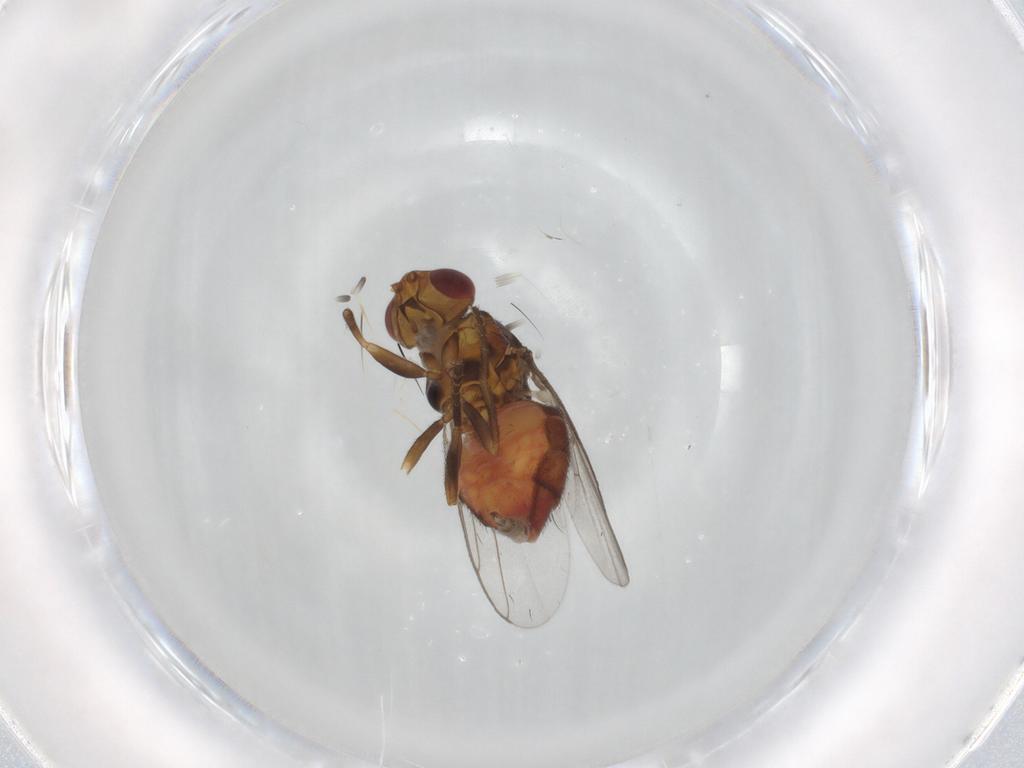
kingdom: Animalia
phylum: Arthropoda
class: Insecta
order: Diptera
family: Chloropidae
